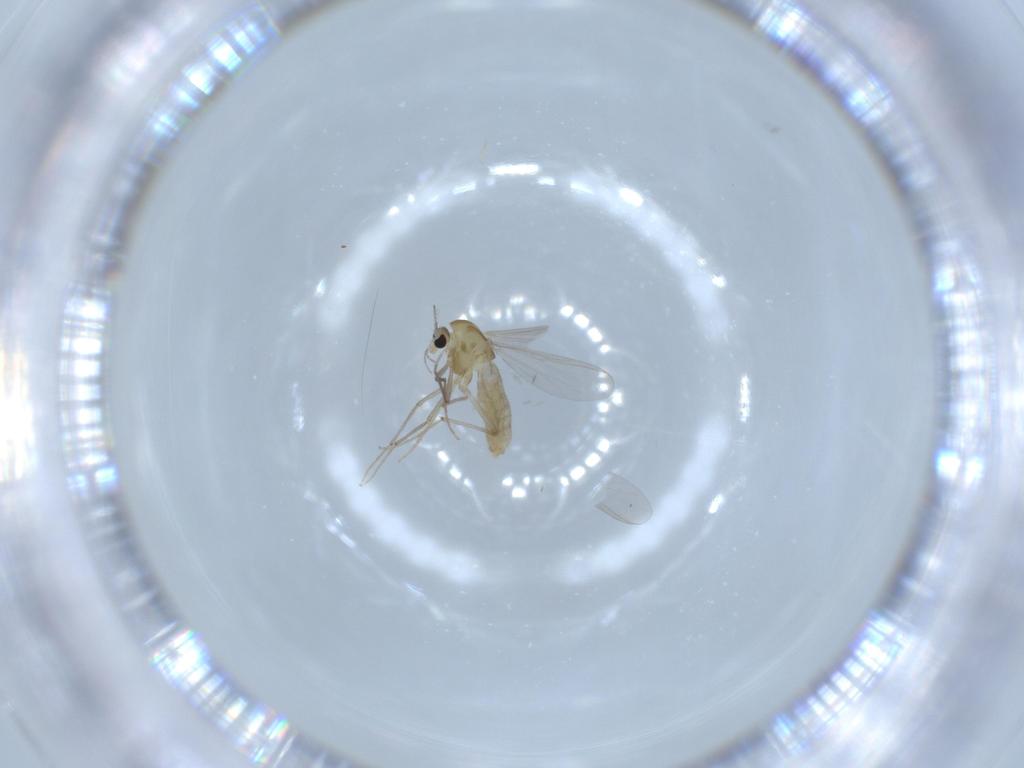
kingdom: Animalia
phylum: Arthropoda
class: Insecta
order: Diptera
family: Chironomidae
